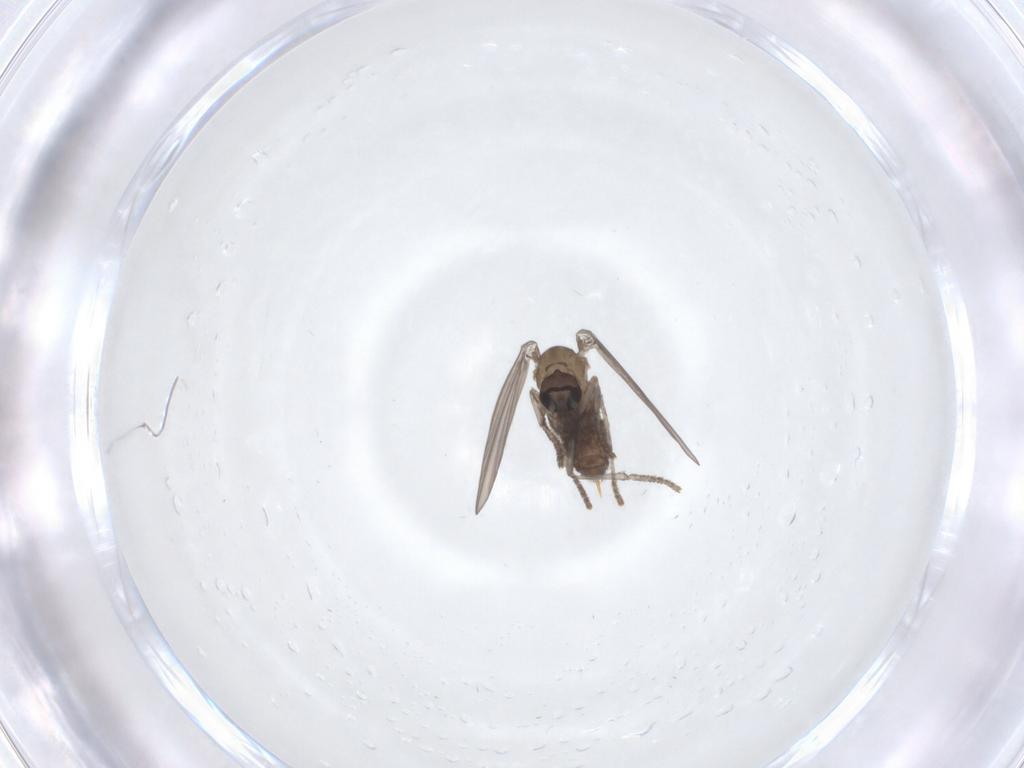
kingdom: Animalia
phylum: Arthropoda
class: Insecta
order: Diptera
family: Psychodidae
